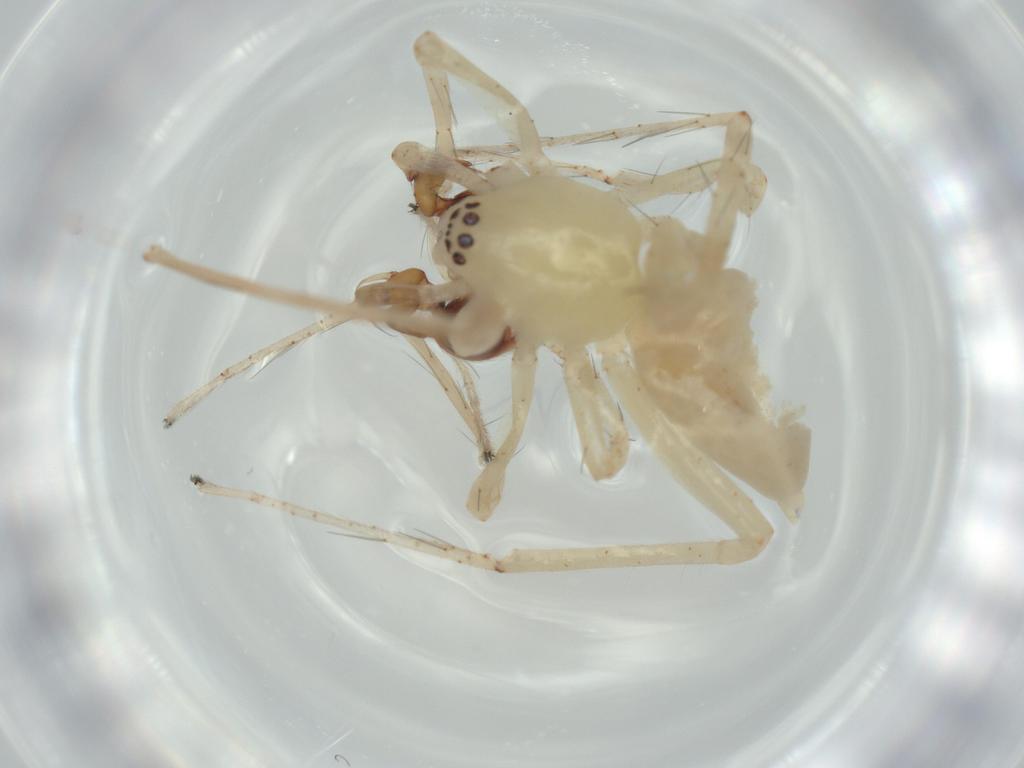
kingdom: Animalia
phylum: Arthropoda
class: Arachnida
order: Araneae
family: Anyphaenidae
